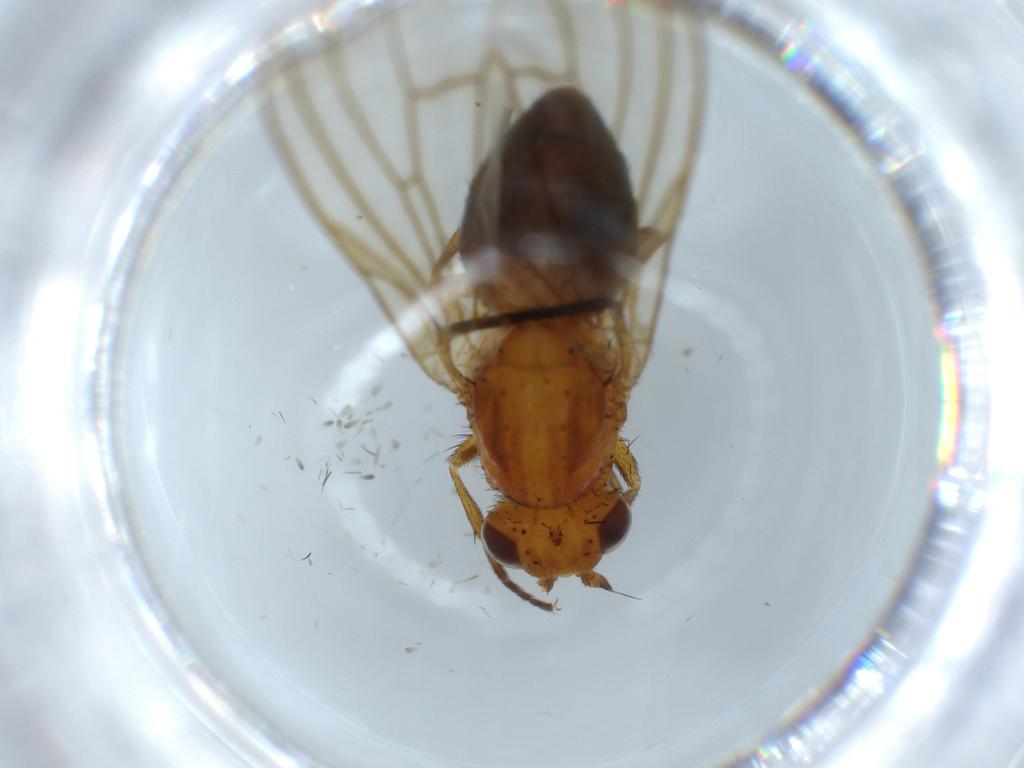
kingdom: Animalia
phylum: Arthropoda
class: Insecta
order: Diptera
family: Lauxaniidae
